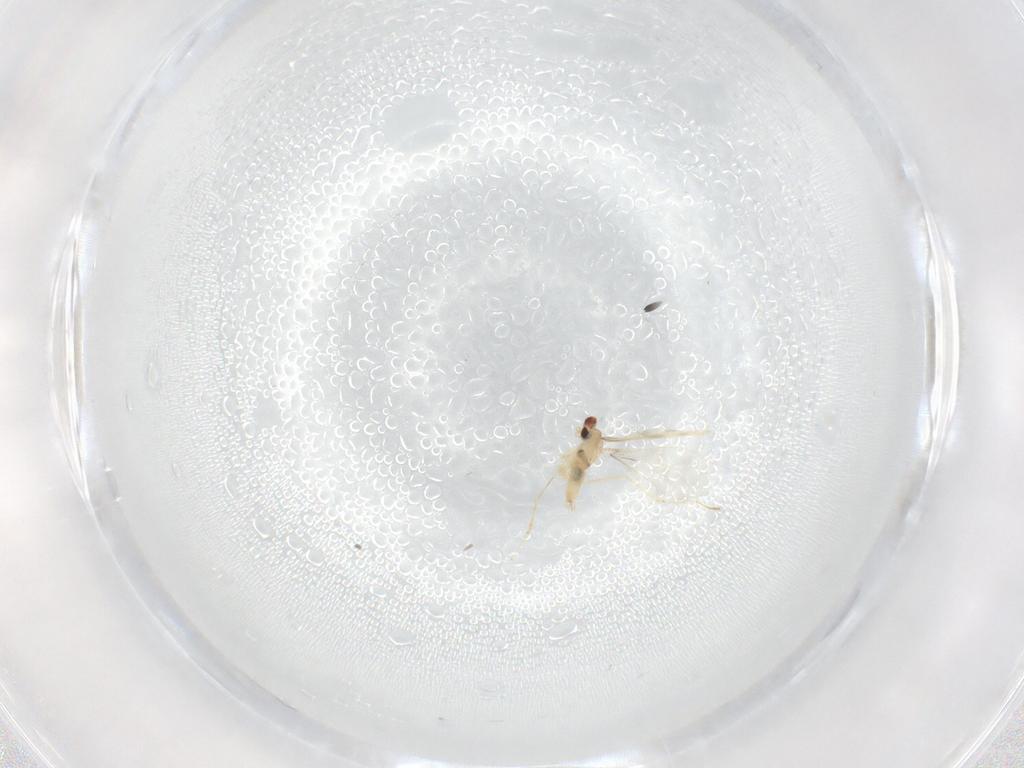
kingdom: Animalia
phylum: Arthropoda
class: Insecta
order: Diptera
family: Cecidomyiidae
